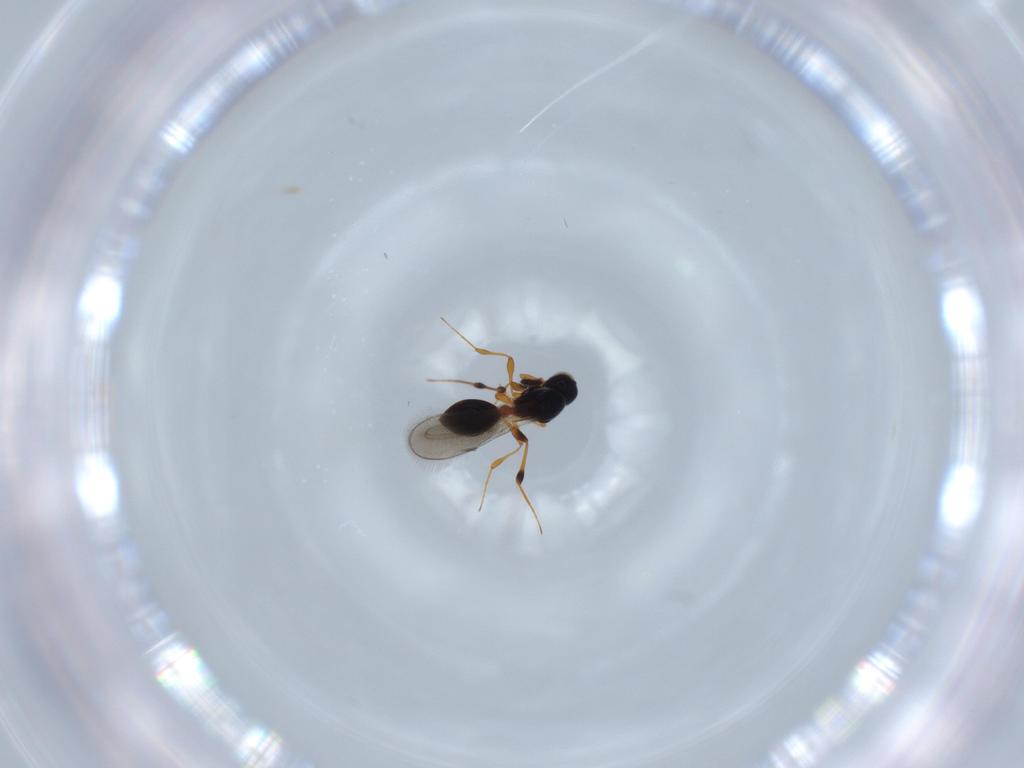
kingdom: Animalia
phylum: Arthropoda
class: Insecta
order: Hymenoptera
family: Platygastridae
